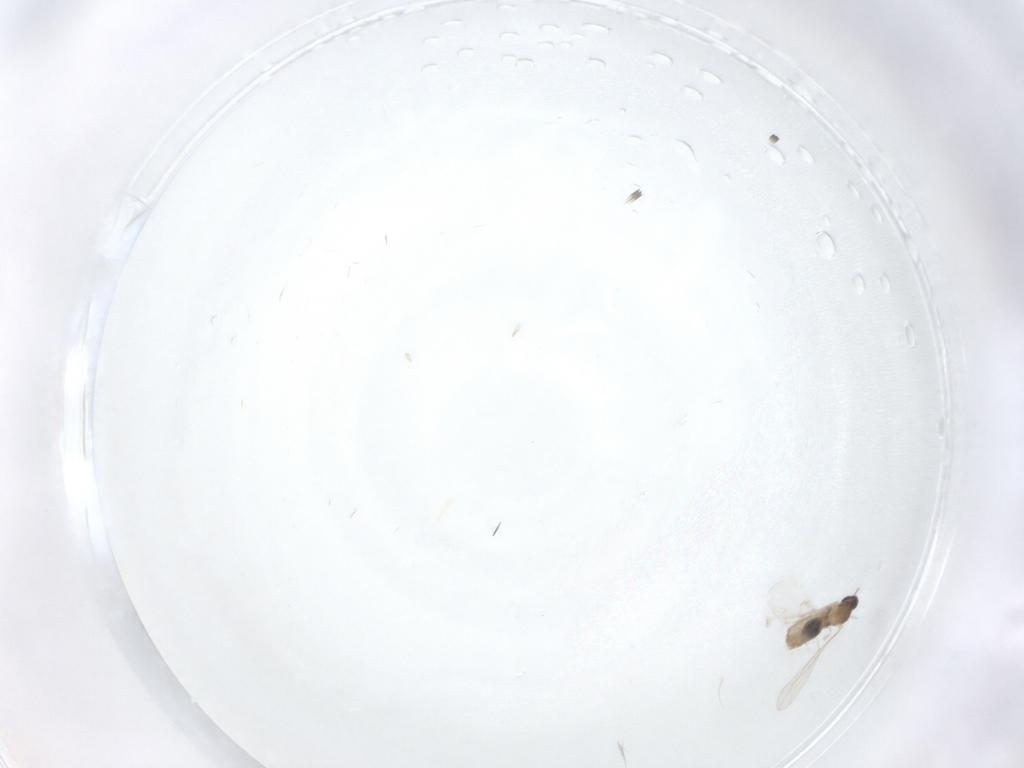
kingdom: Animalia
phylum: Arthropoda
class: Insecta
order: Diptera
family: Cecidomyiidae
